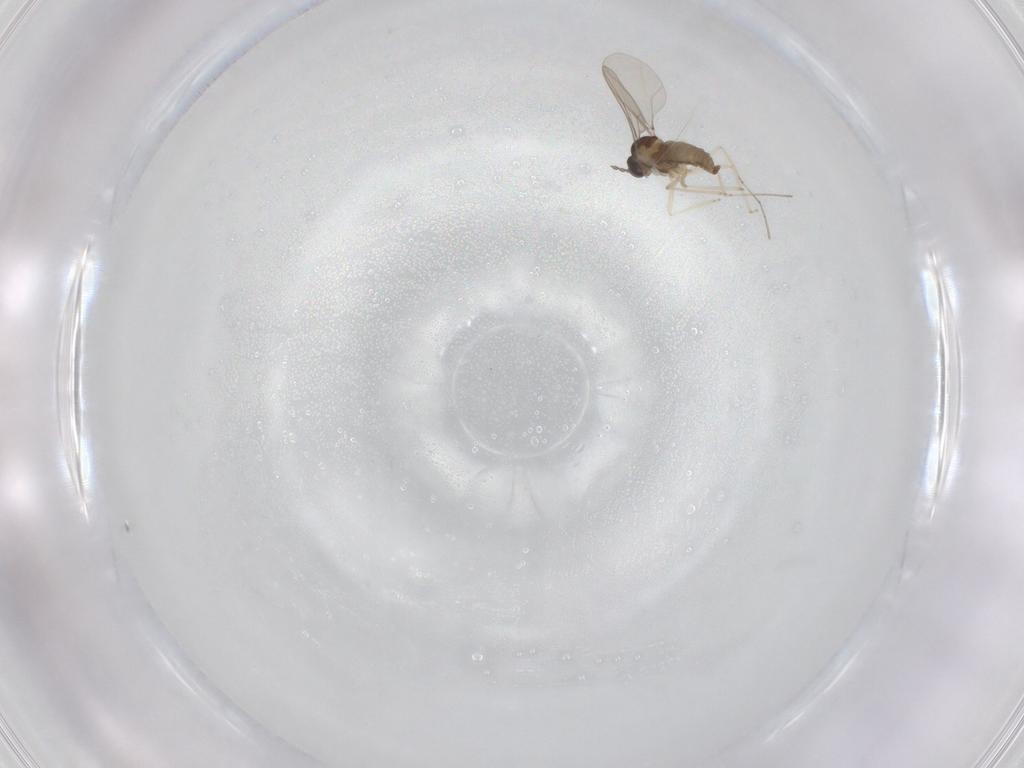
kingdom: Animalia
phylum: Arthropoda
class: Insecta
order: Diptera
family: Cecidomyiidae
